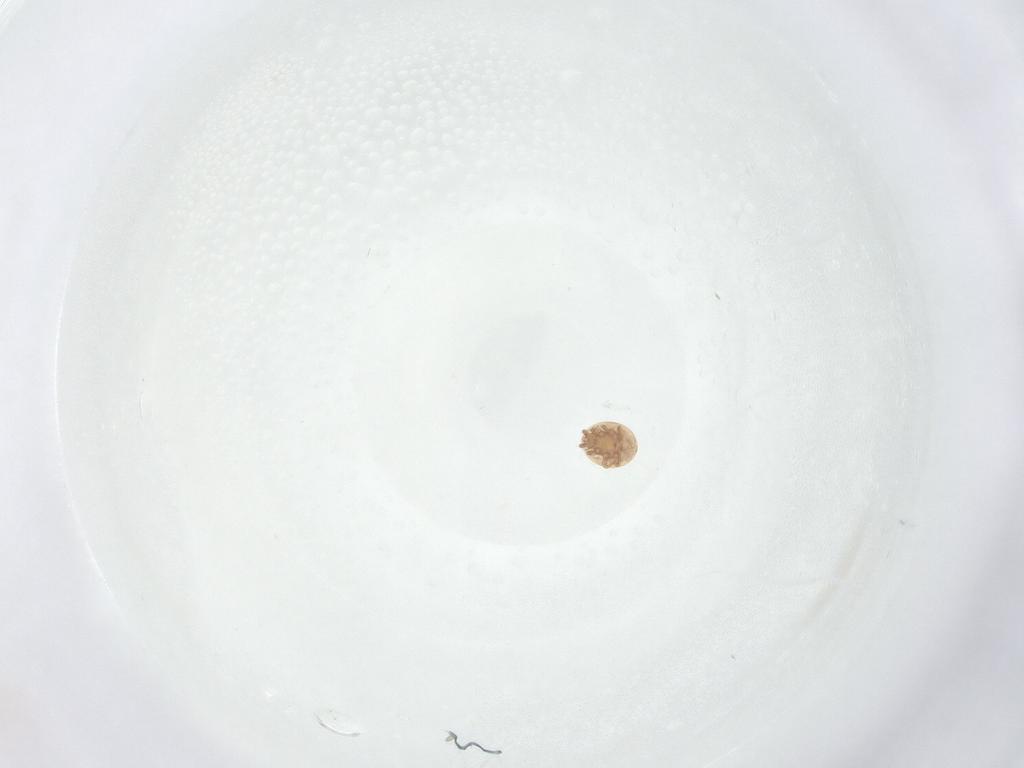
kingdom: Animalia
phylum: Arthropoda
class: Arachnida
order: Mesostigmata
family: Trematuridae
